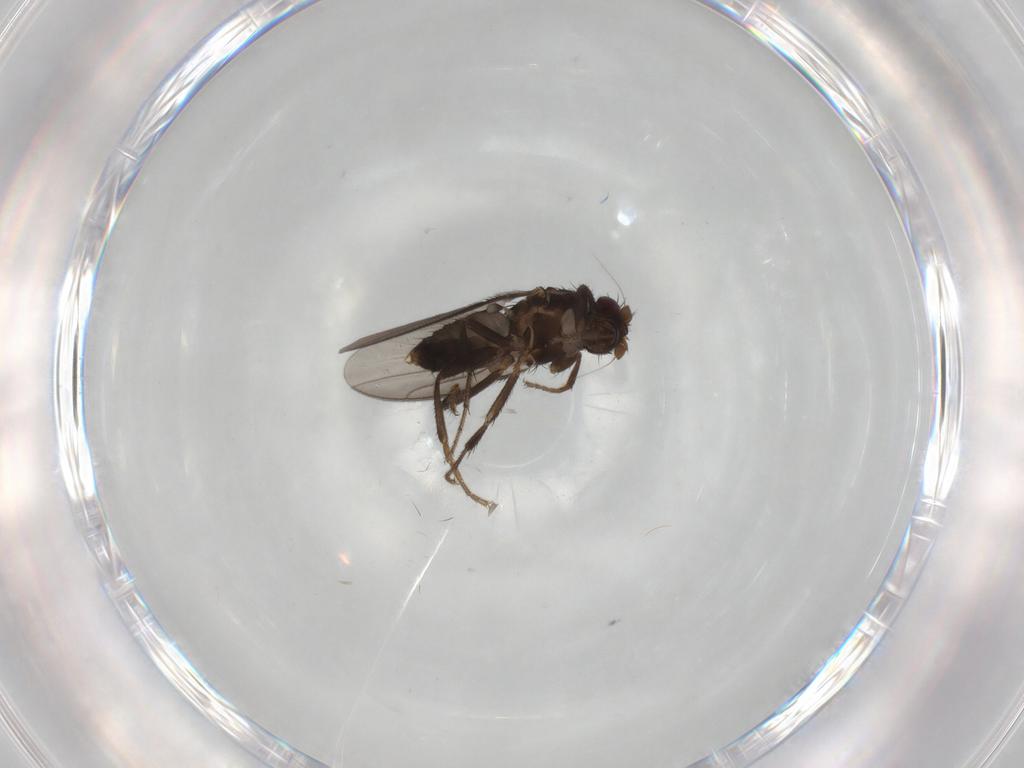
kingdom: Animalia
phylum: Arthropoda
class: Insecta
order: Diptera
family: Sphaeroceridae
